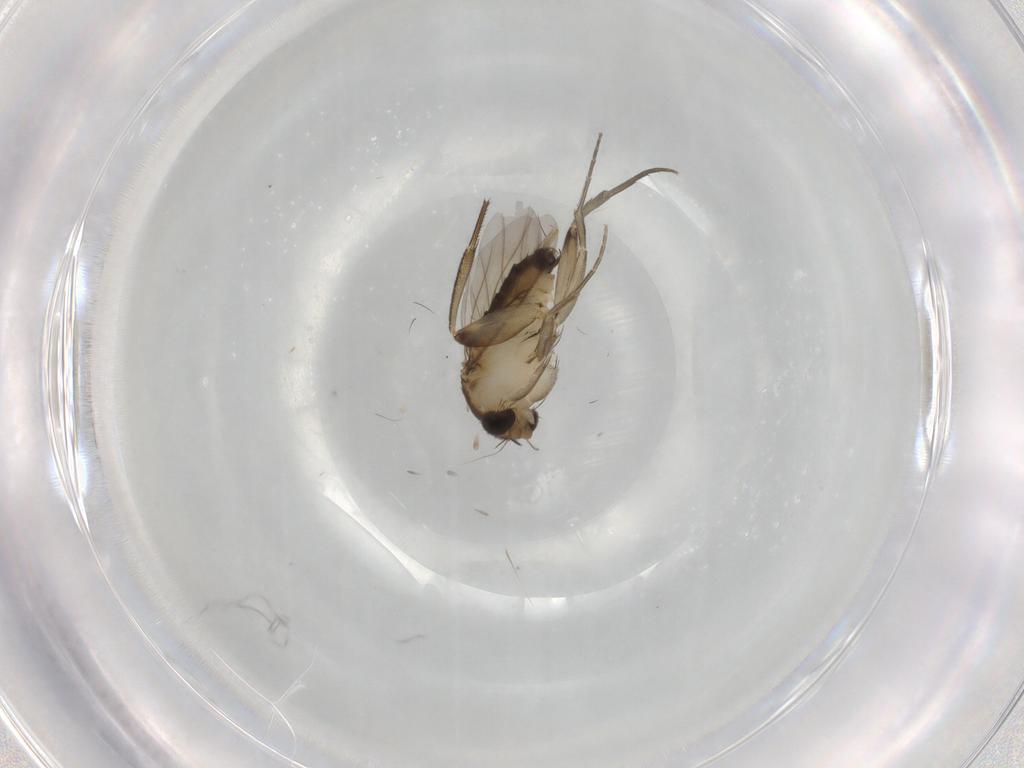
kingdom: Animalia
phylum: Arthropoda
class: Insecta
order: Diptera
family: Phoridae
